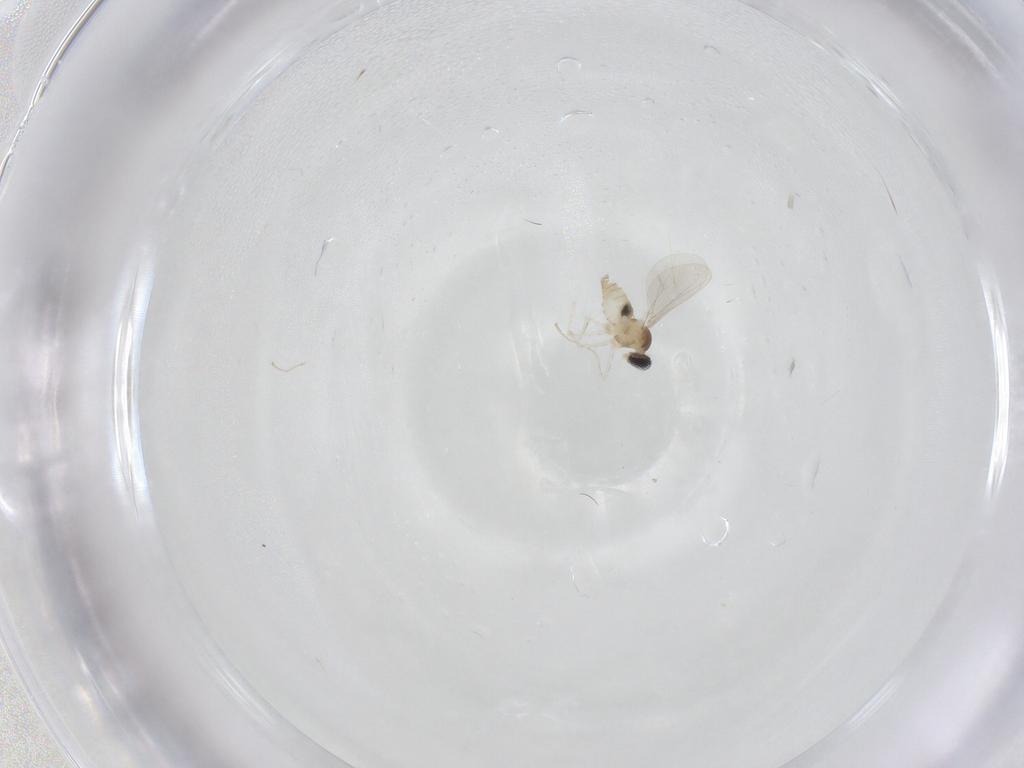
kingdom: Animalia
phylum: Arthropoda
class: Insecta
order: Diptera
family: Cecidomyiidae
